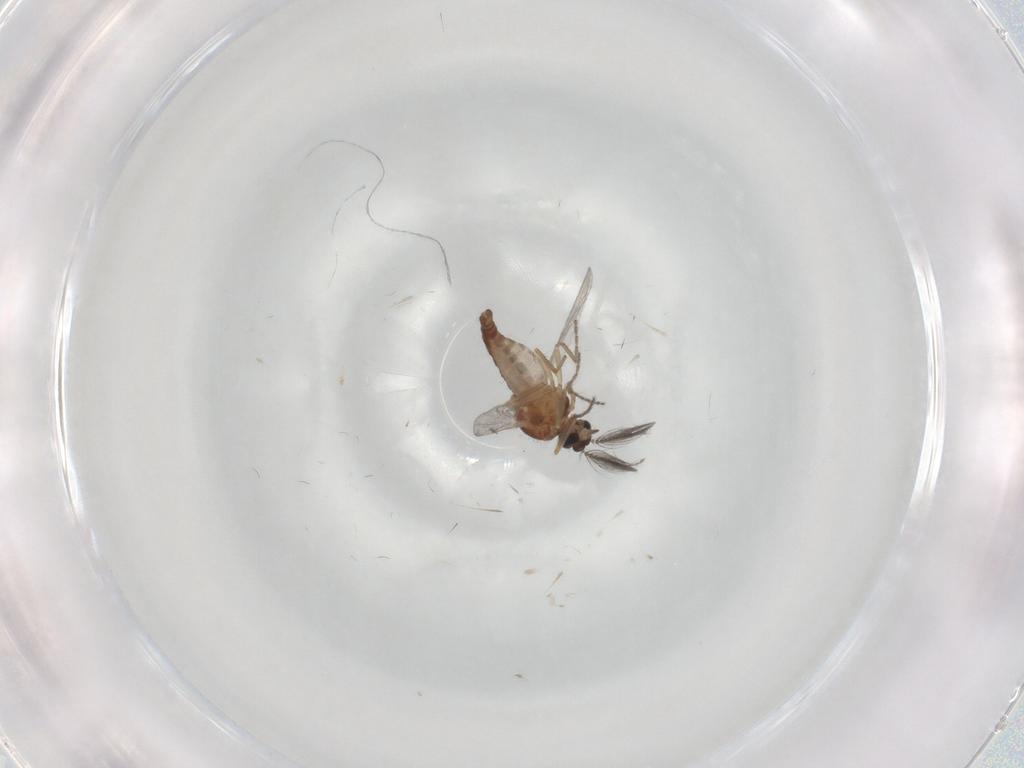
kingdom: Animalia
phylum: Arthropoda
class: Insecta
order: Diptera
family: Ceratopogonidae
